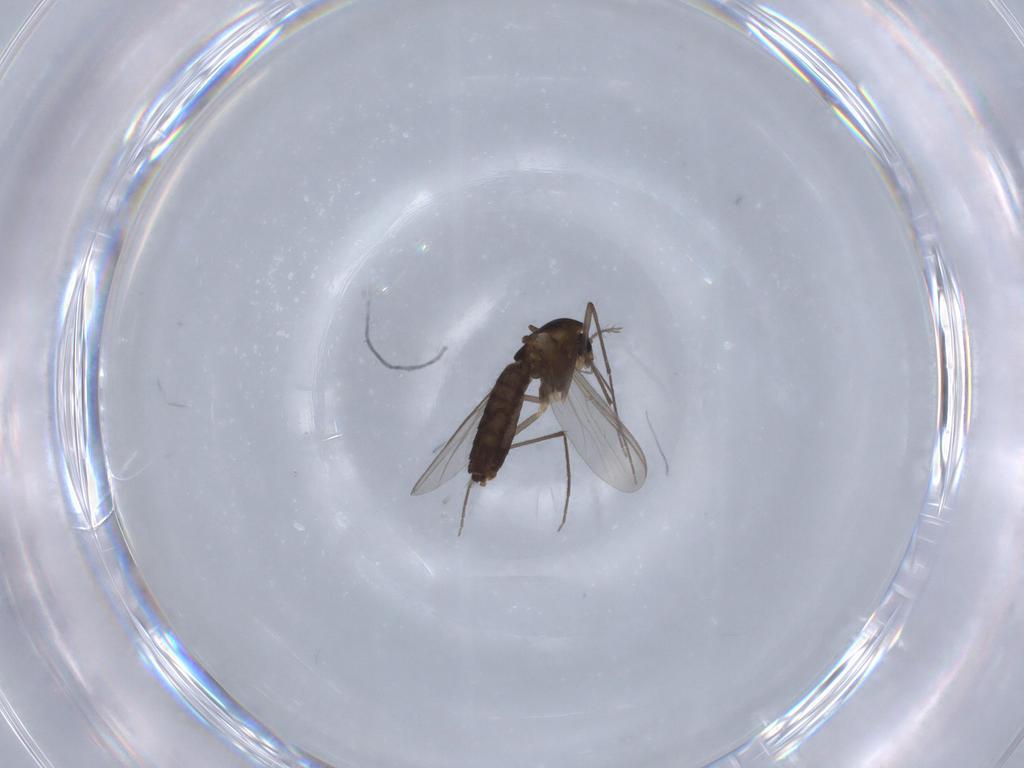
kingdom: Animalia
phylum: Arthropoda
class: Insecta
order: Diptera
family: Chironomidae
